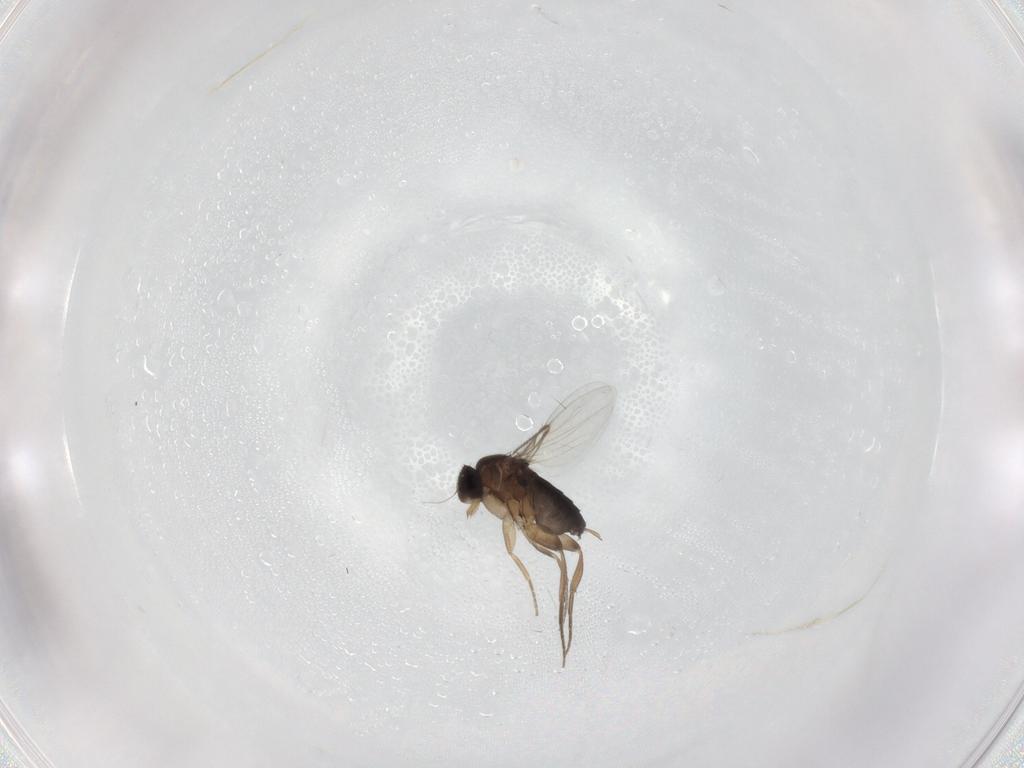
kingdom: Animalia
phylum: Arthropoda
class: Insecta
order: Diptera
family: Phoridae
